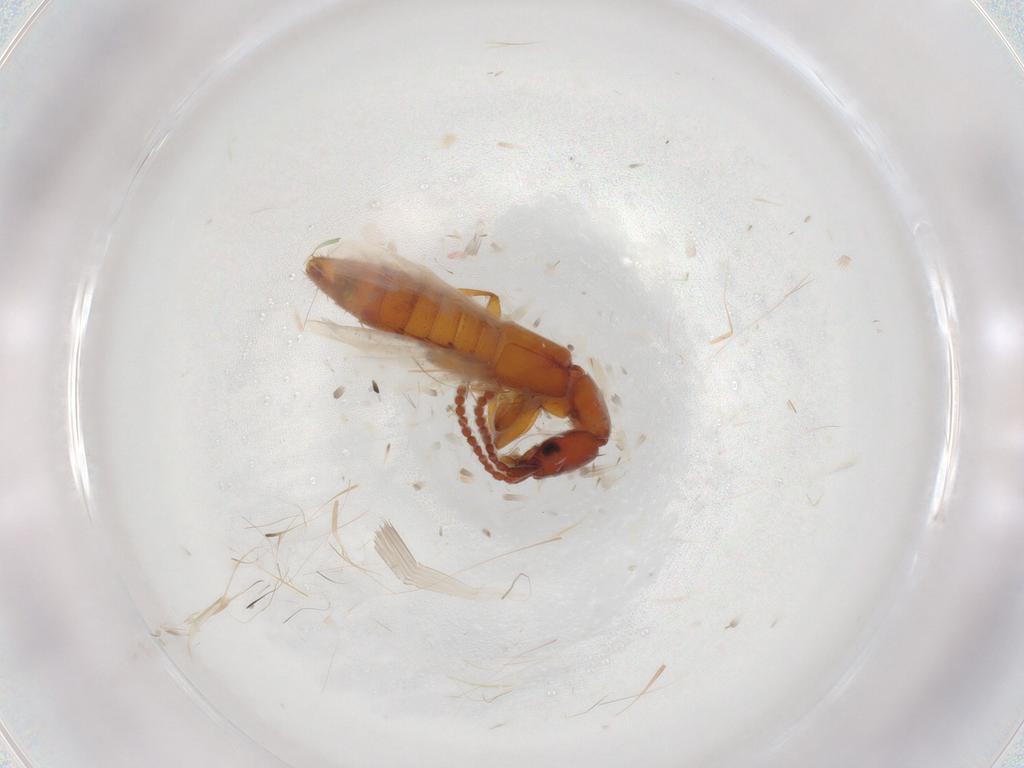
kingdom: Animalia
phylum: Arthropoda
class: Insecta
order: Coleoptera
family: Staphylinidae
